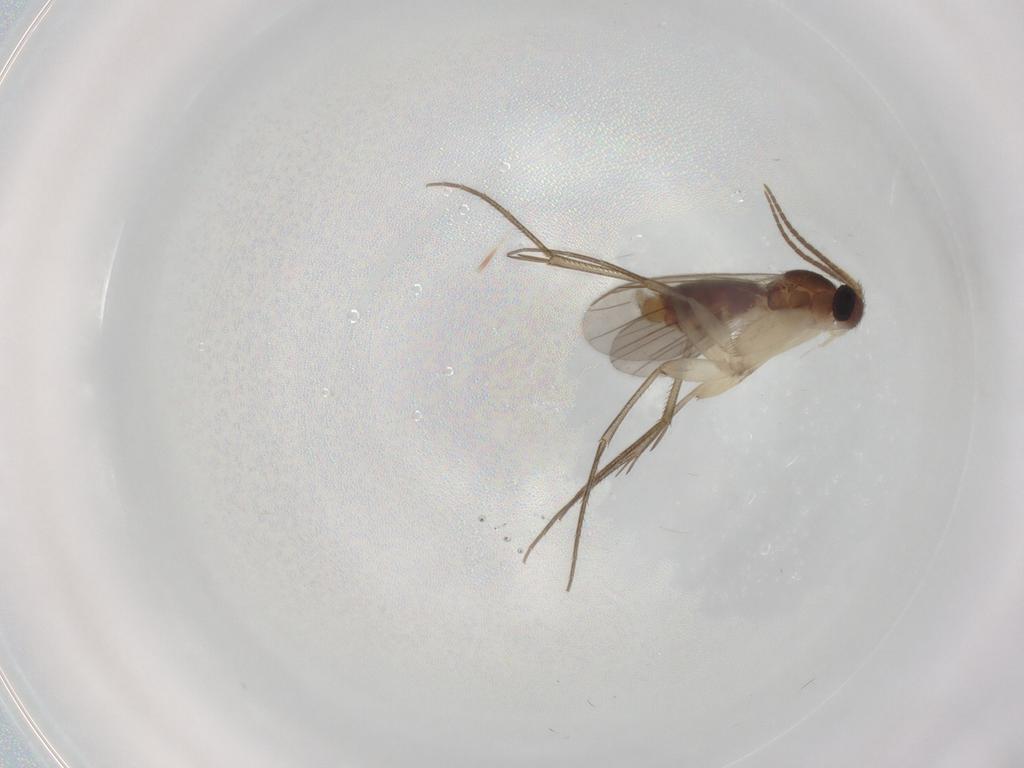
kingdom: Animalia
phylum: Arthropoda
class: Insecta
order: Diptera
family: Mycetophilidae
